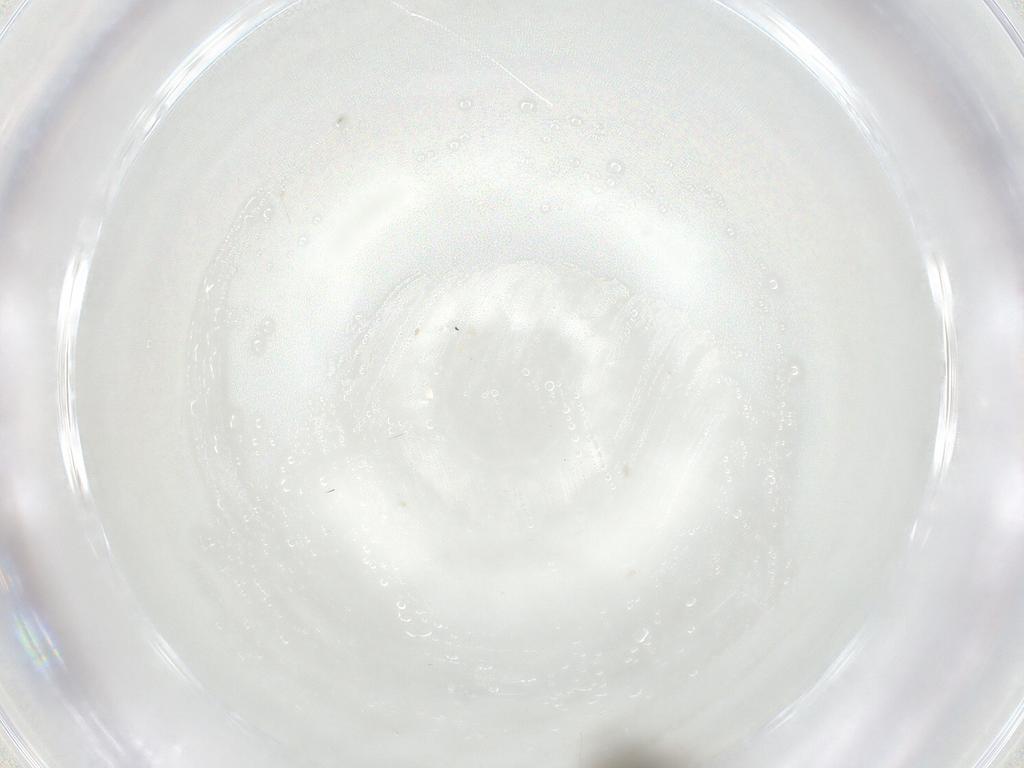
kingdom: Animalia
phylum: Arthropoda
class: Insecta
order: Diptera
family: Ceratopogonidae
